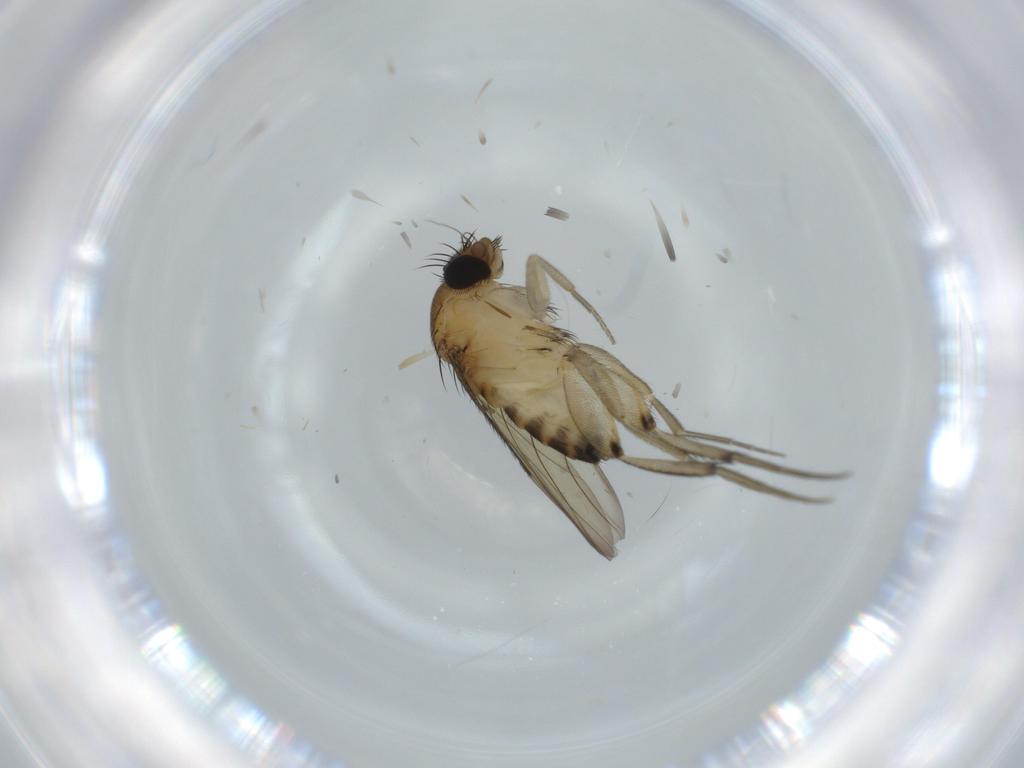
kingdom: Animalia
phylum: Arthropoda
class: Insecta
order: Diptera
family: Phoridae
